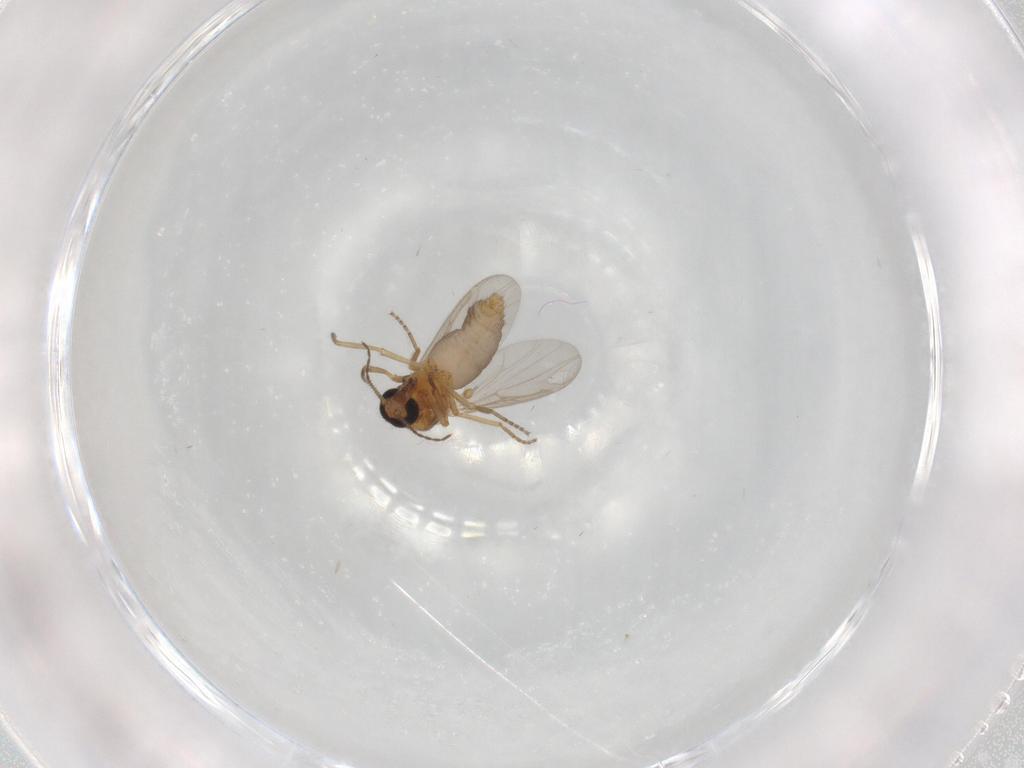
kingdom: Animalia
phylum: Arthropoda
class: Insecta
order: Diptera
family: Ceratopogonidae
